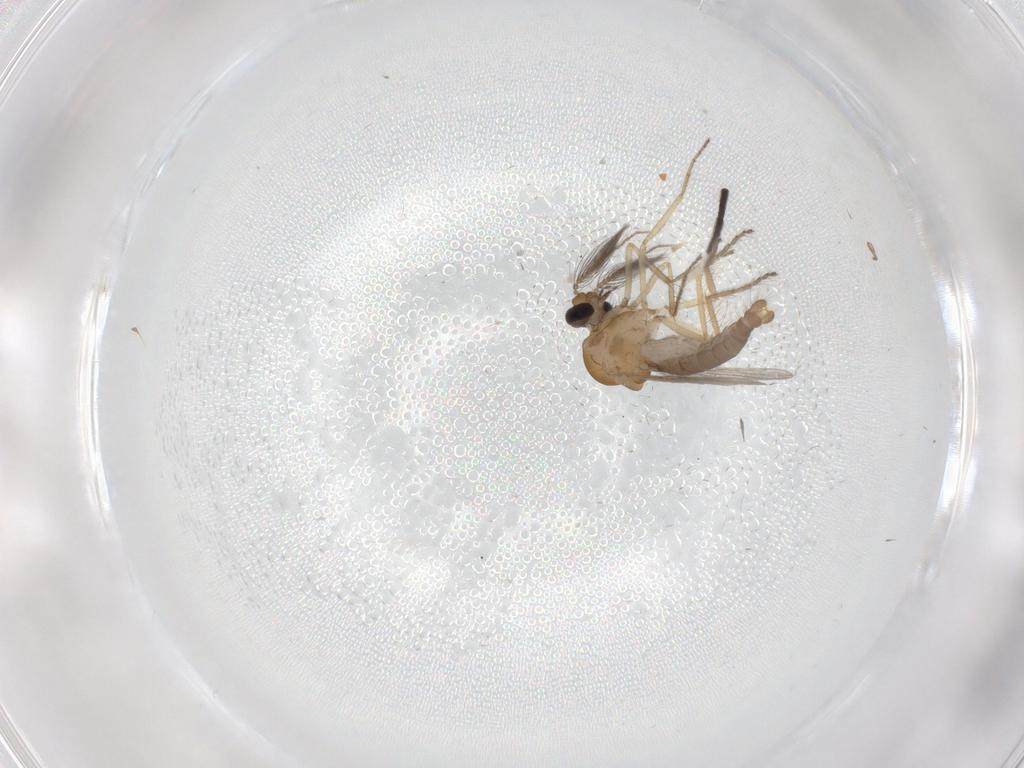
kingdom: Animalia
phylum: Arthropoda
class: Insecta
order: Diptera
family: Ceratopogonidae
